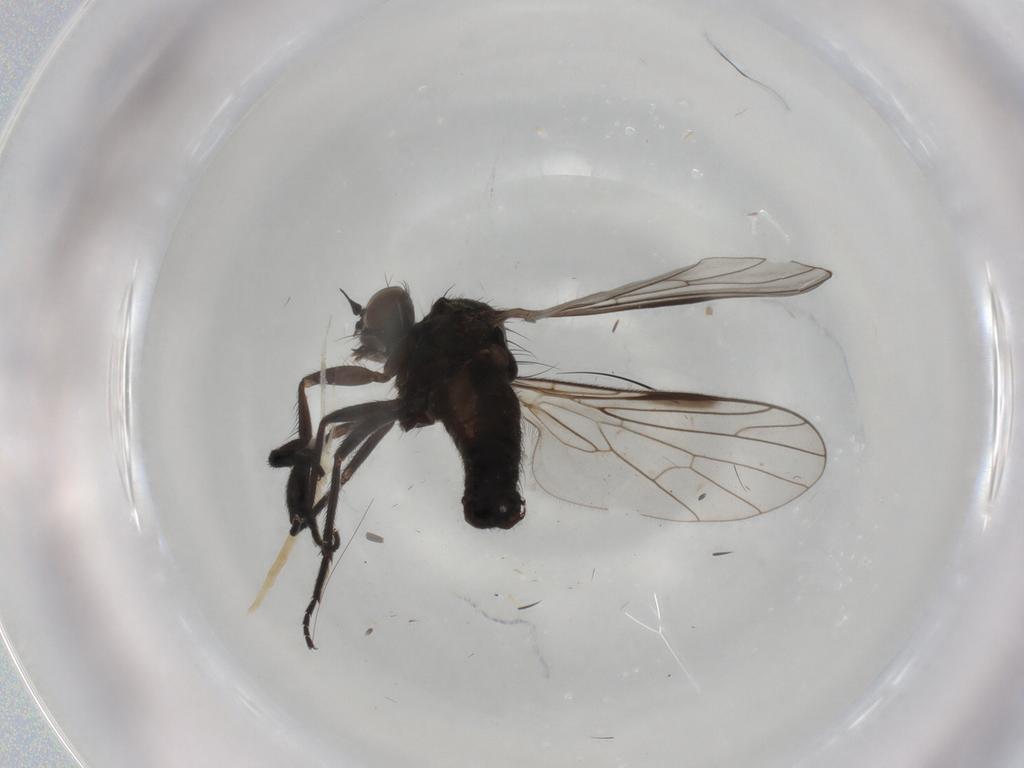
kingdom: Animalia
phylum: Arthropoda
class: Insecta
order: Diptera
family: Empididae
